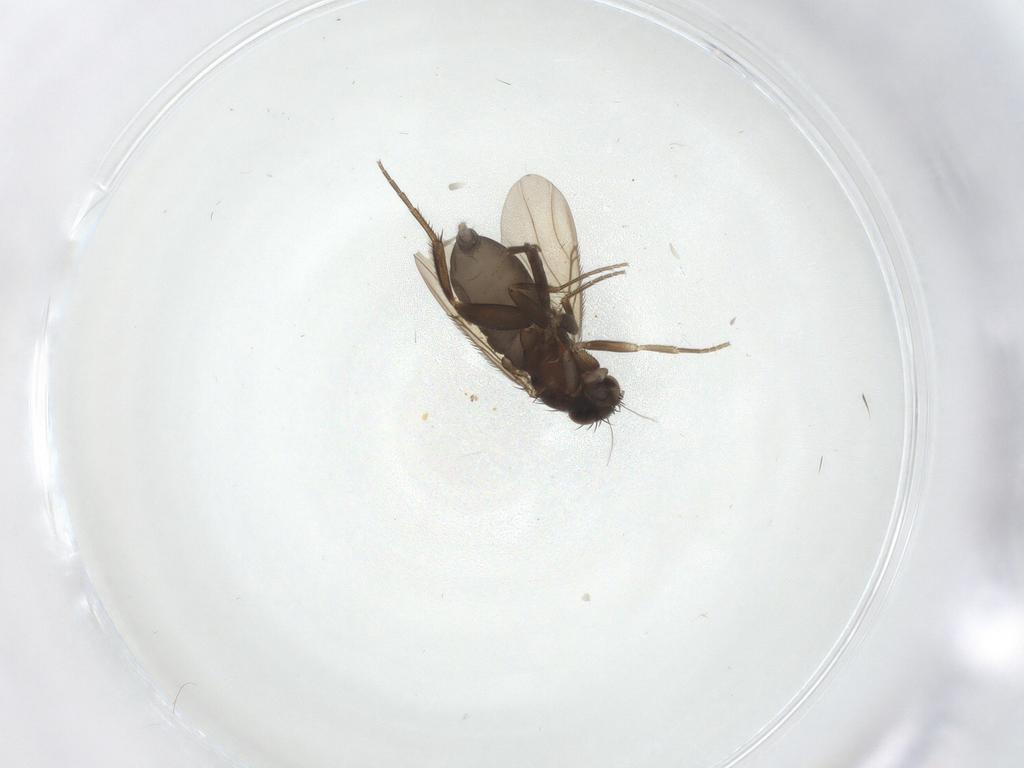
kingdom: Animalia
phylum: Arthropoda
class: Insecta
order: Diptera
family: Phoridae
